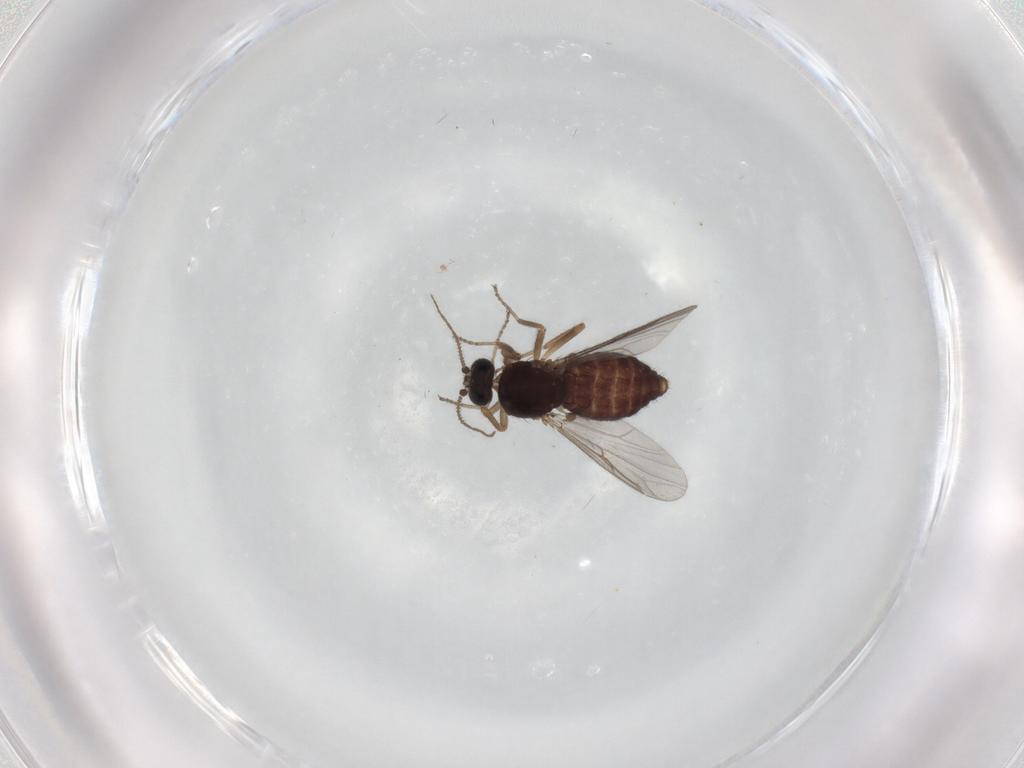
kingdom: Animalia
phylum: Arthropoda
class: Insecta
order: Diptera
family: Ceratopogonidae
